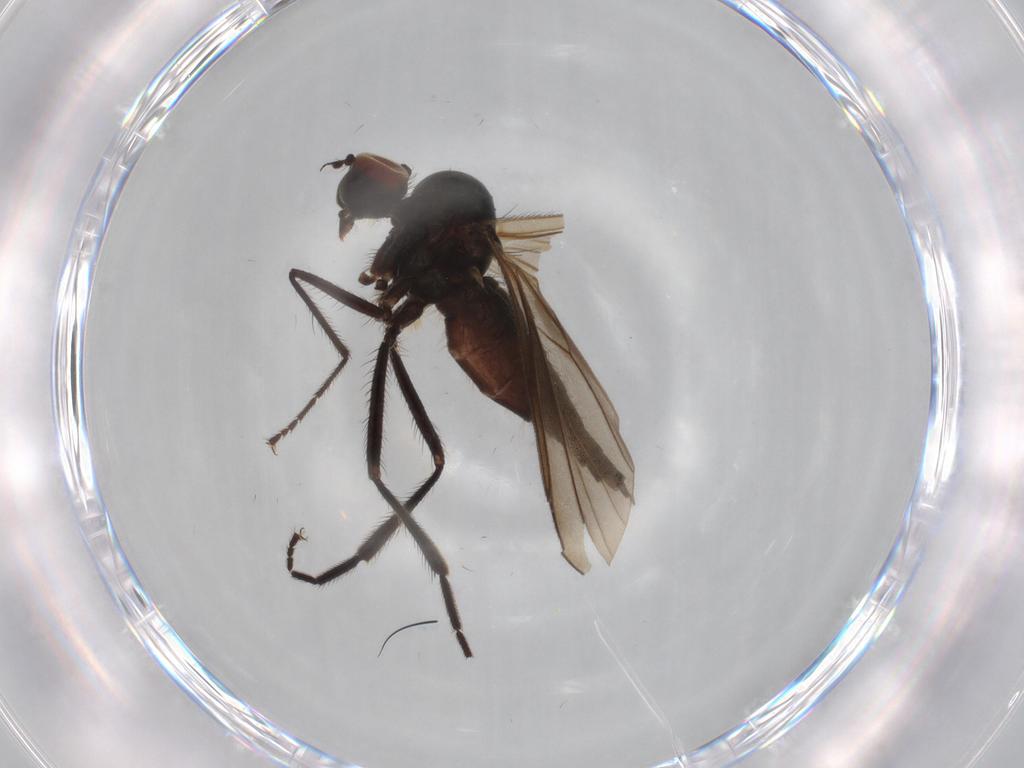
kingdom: Animalia
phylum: Arthropoda
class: Insecta
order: Diptera
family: Hybotidae
